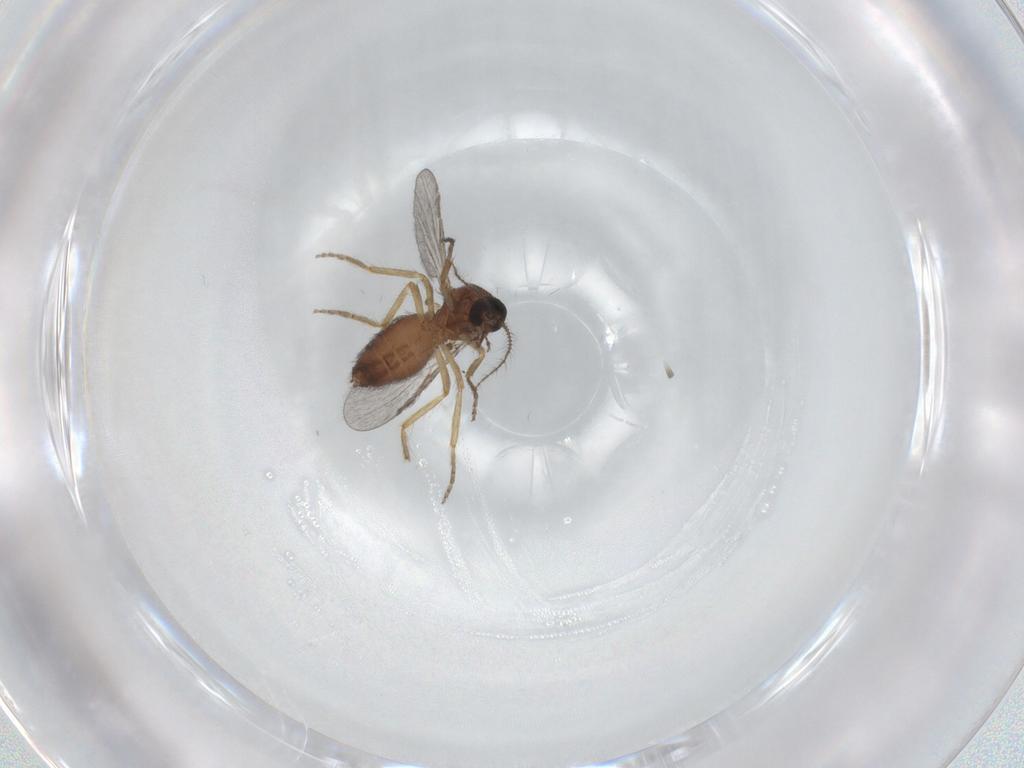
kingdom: Animalia
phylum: Arthropoda
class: Insecta
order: Diptera
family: Ceratopogonidae
